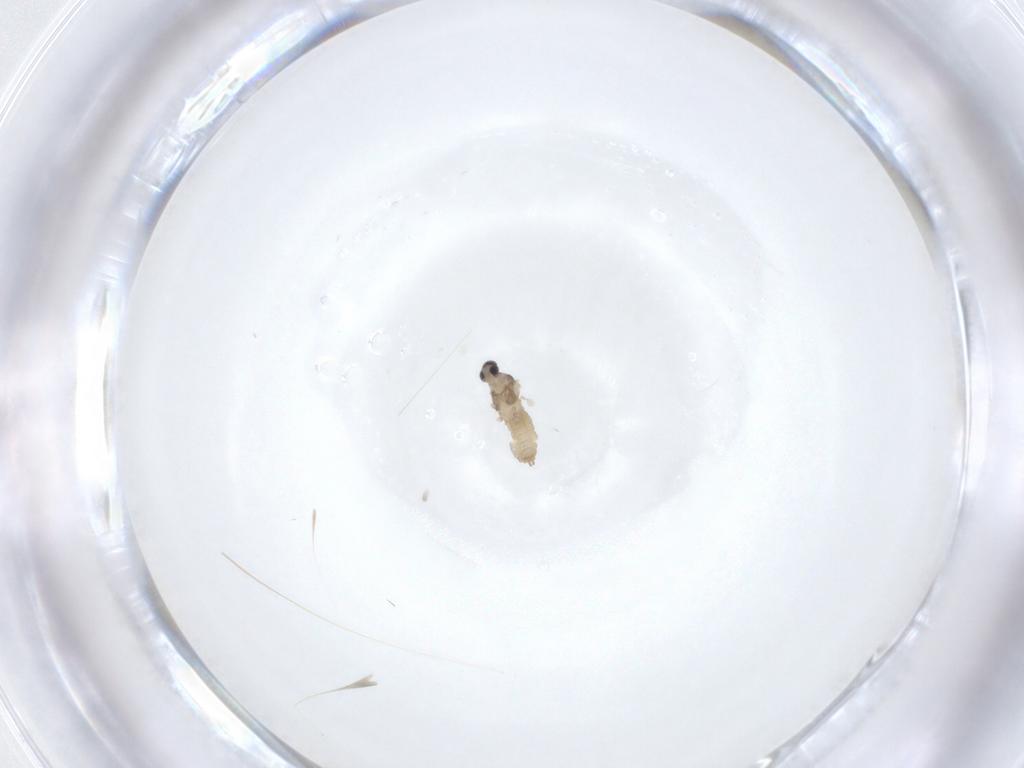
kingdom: Animalia
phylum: Arthropoda
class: Insecta
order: Diptera
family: Cecidomyiidae
